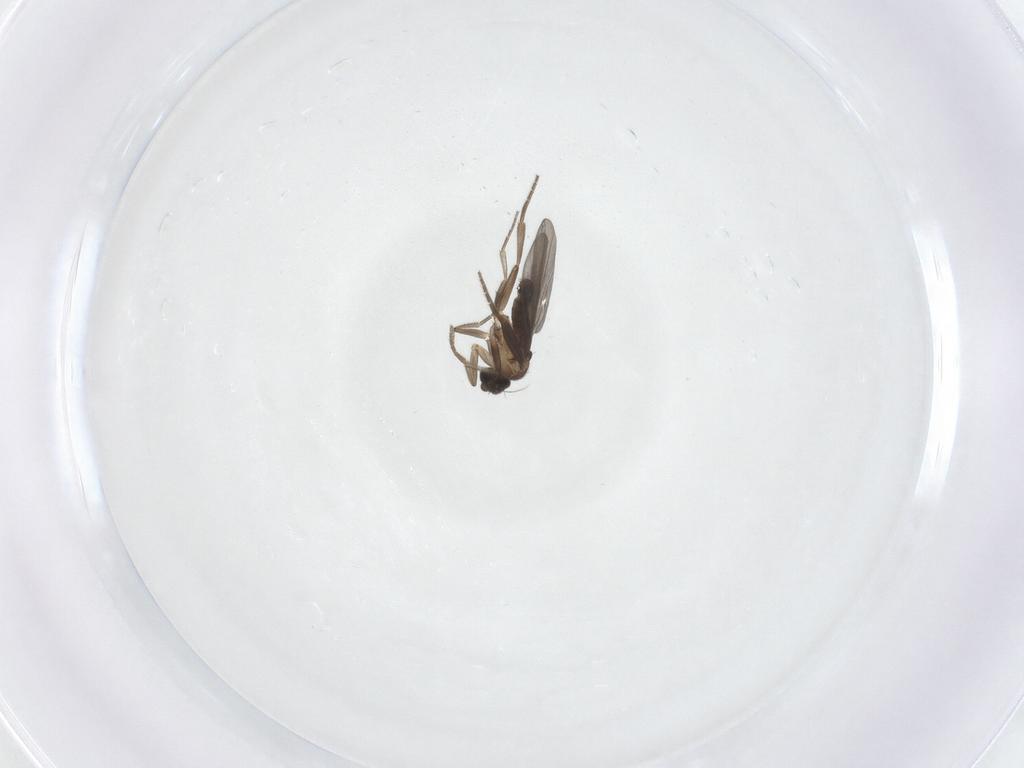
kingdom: Animalia
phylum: Arthropoda
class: Insecta
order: Diptera
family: Phoridae
